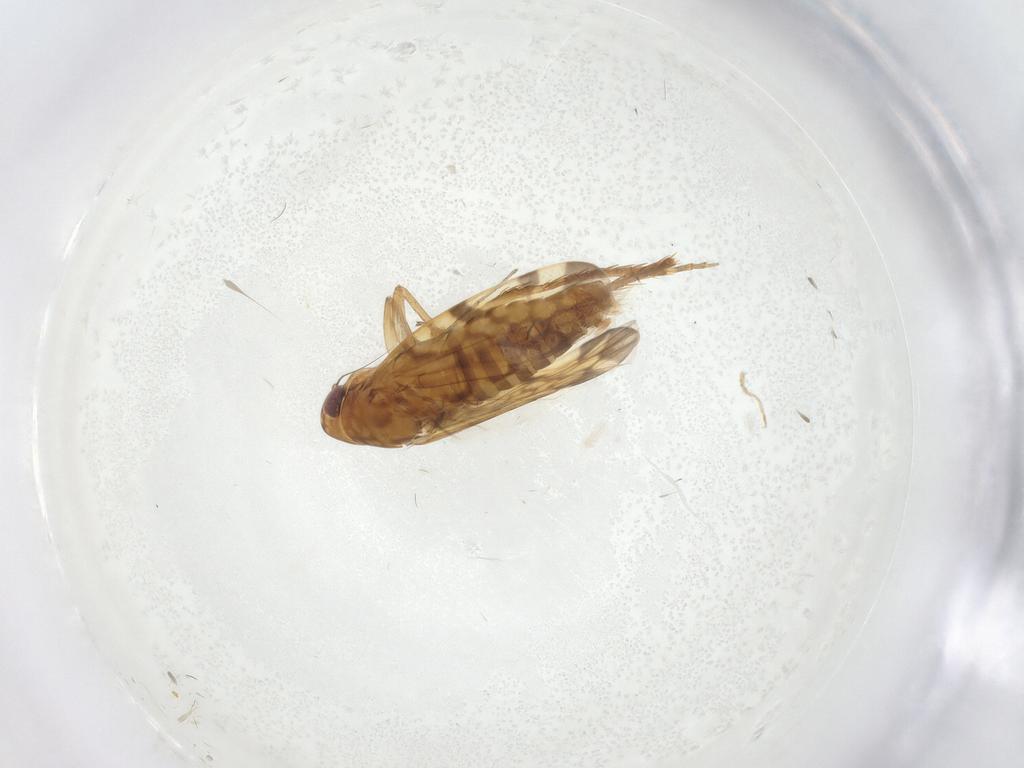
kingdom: Animalia
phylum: Arthropoda
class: Insecta
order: Hemiptera
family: Cicadellidae
